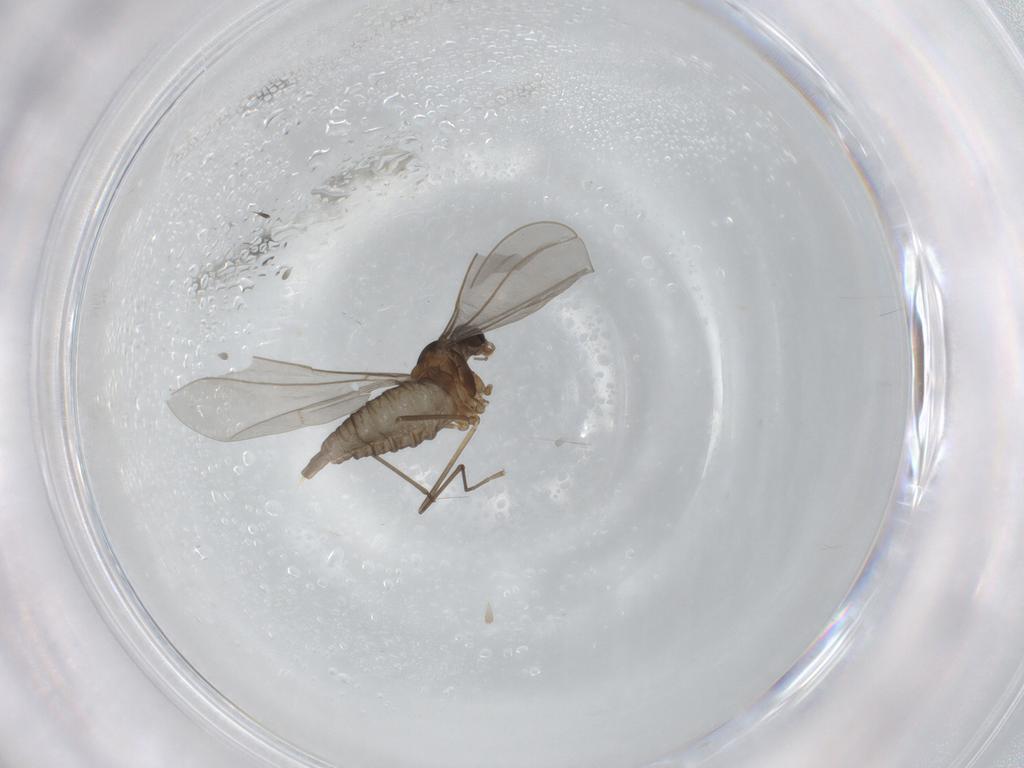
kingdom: Animalia
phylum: Arthropoda
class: Insecta
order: Diptera
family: Cecidomyiidae
